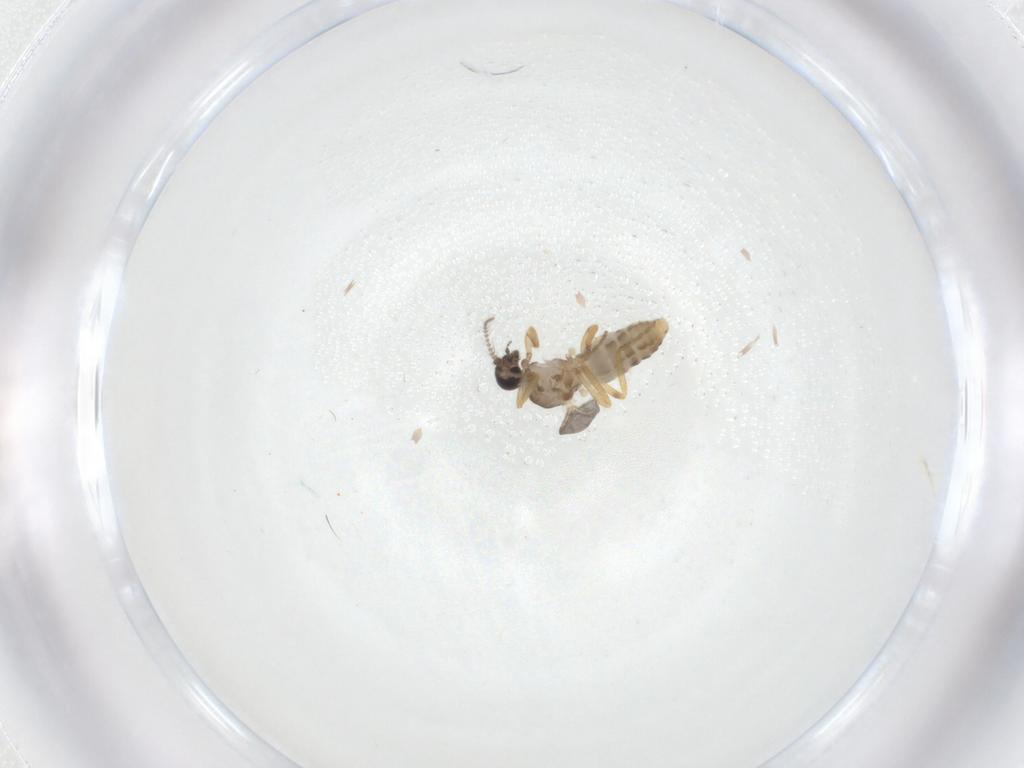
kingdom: Animalia
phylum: Arthropoda
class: Insecta
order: Diptera
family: Ceratopogonidae
